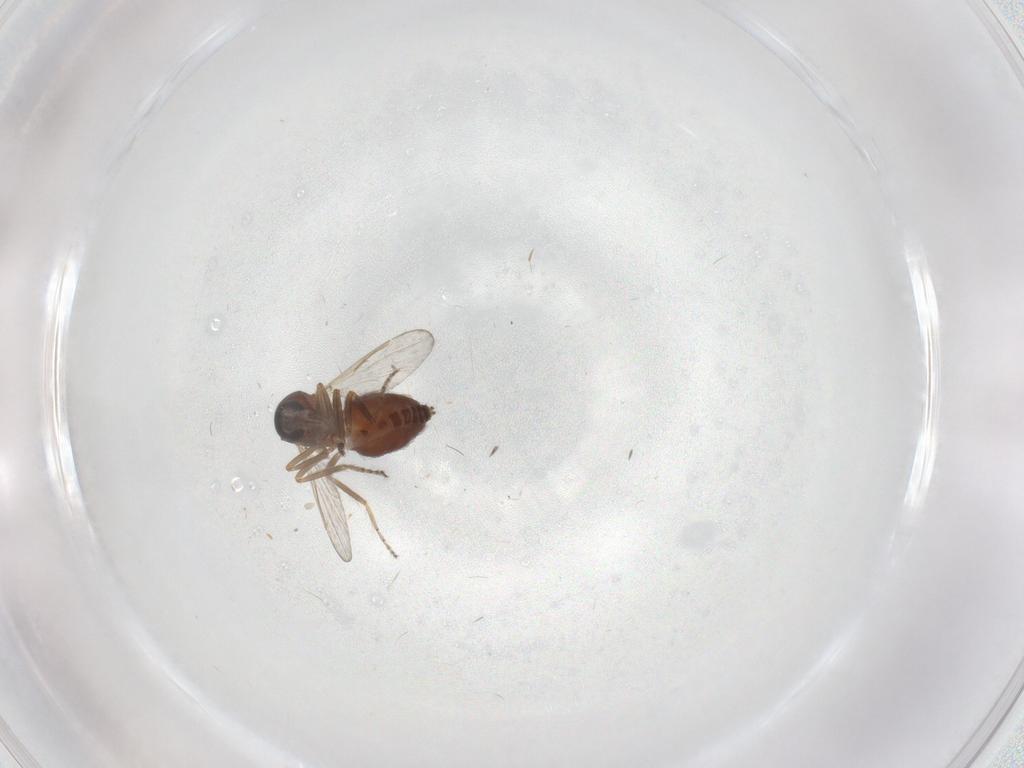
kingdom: Animalia
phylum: Arthropoda
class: Insecta
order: Diptera
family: Ceratopogonidae
